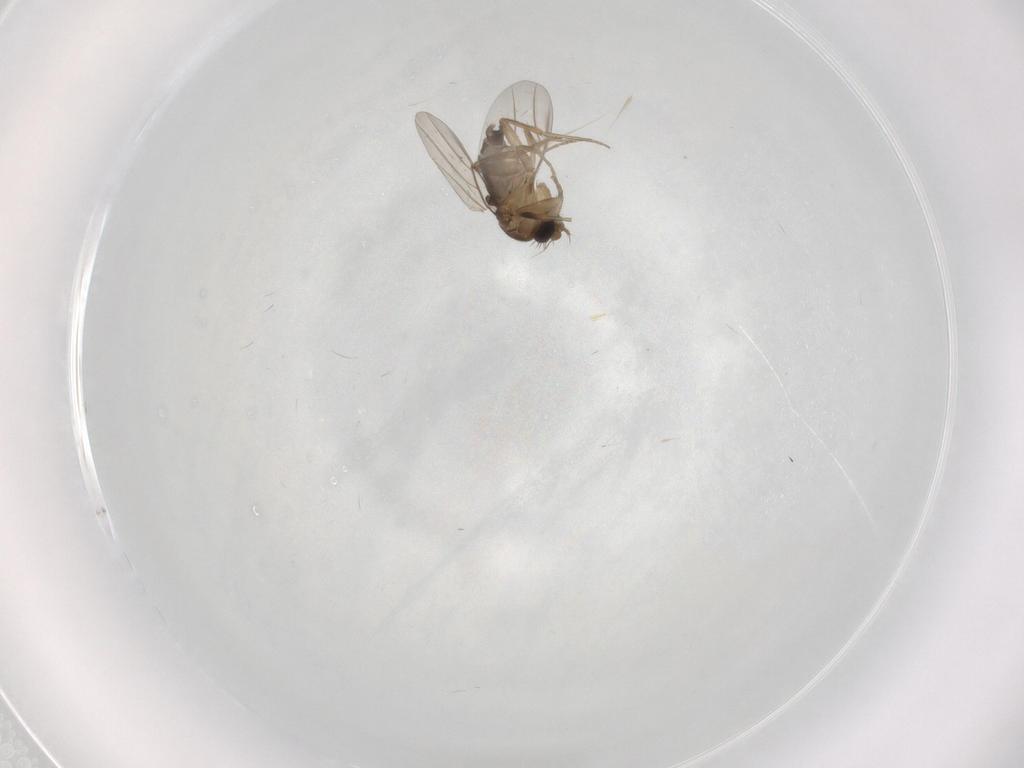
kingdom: Animalia
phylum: Arthropoda
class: Insecta
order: Diptera
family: Phoridae
